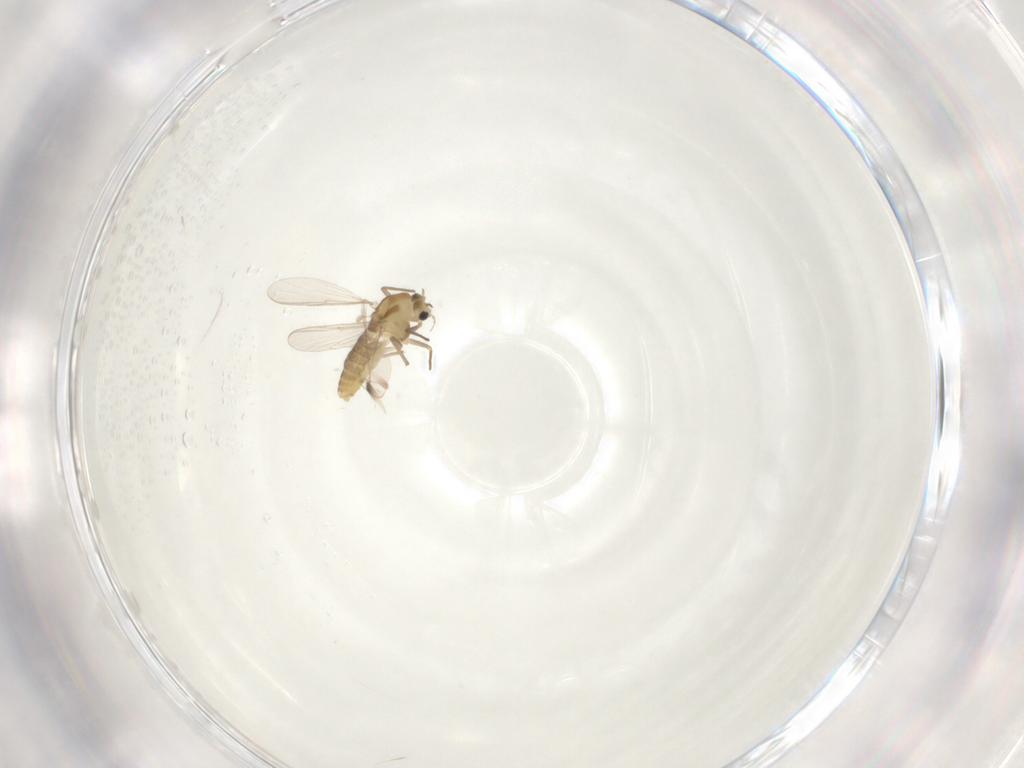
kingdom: Animalia
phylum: Arthropoda
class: Insecta
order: Diptera
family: Chironomidae
